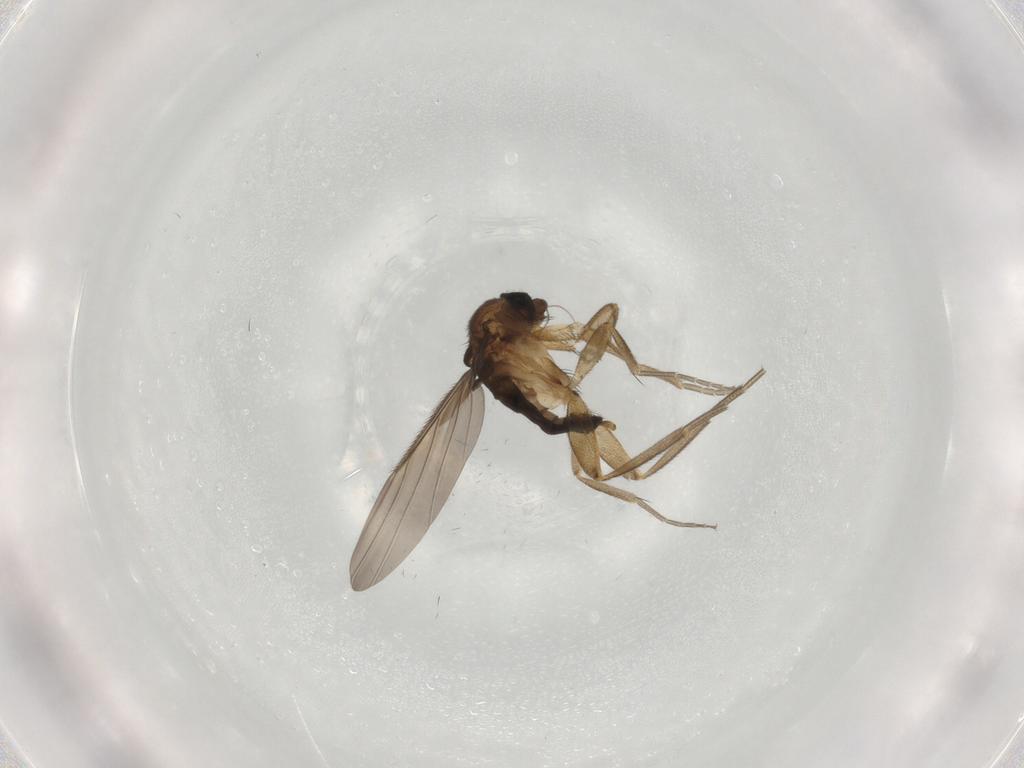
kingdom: Animalia
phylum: Arthropoda
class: Insecta
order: Diptera
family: Phoridae
